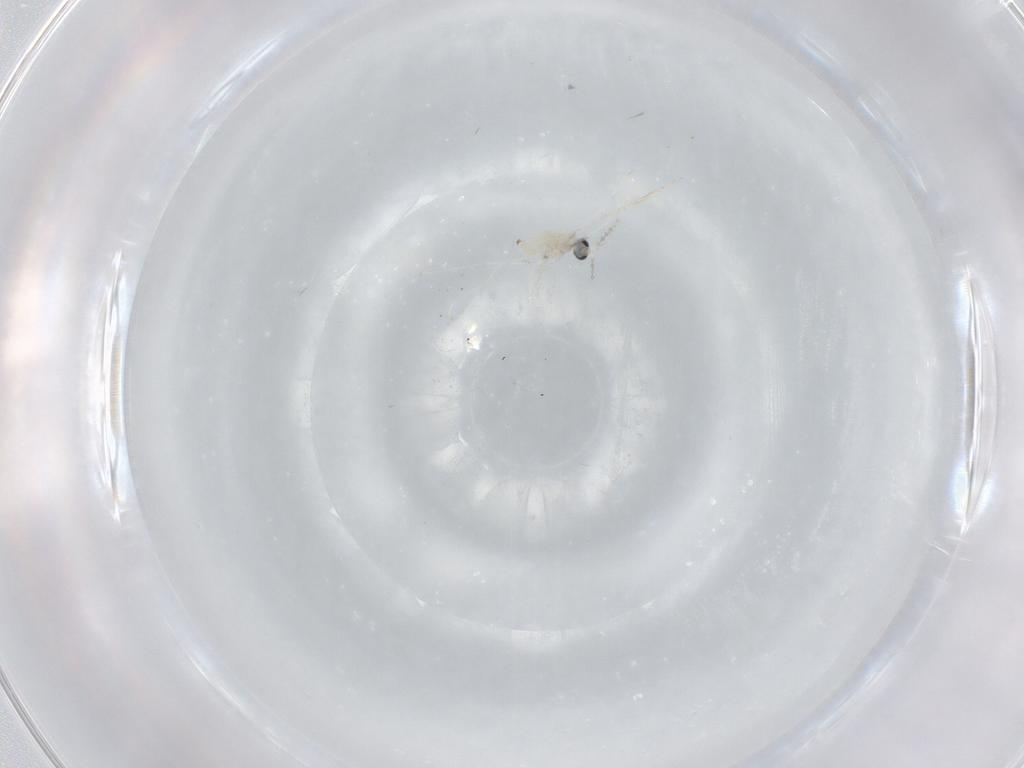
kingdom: Animalia
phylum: Arthropoda
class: Insecta
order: Diptera
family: Cecidomyiidae
